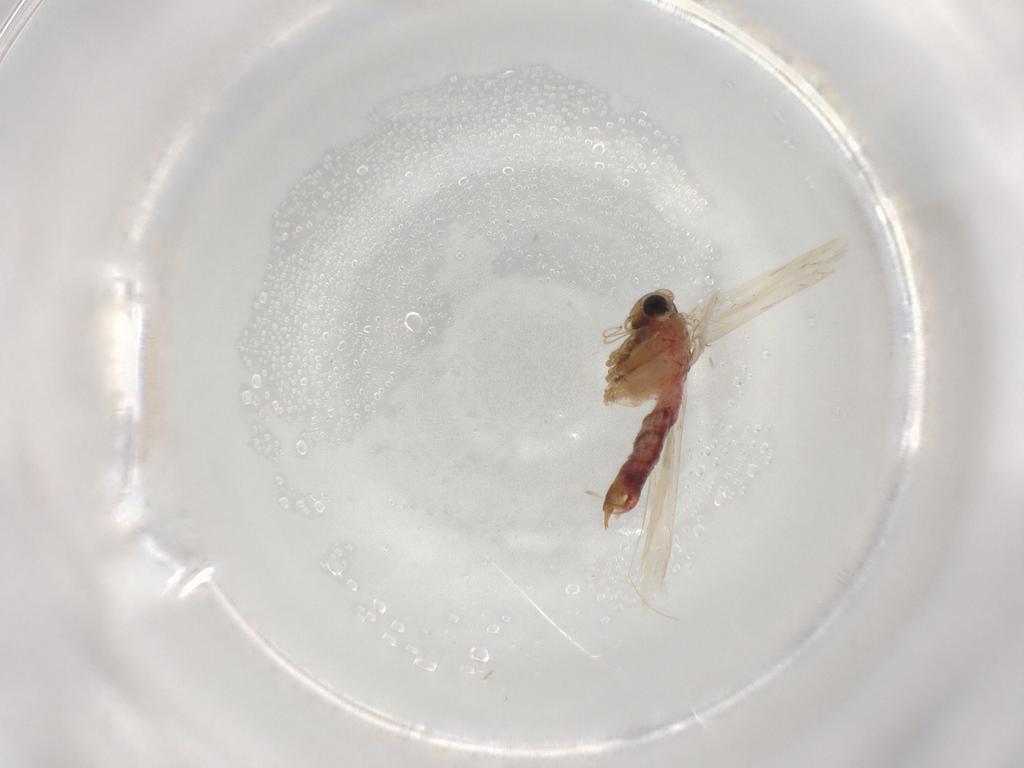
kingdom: Animalia
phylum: Arthropoda
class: Insecta
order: Lepidoptera
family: Gelechiidae
